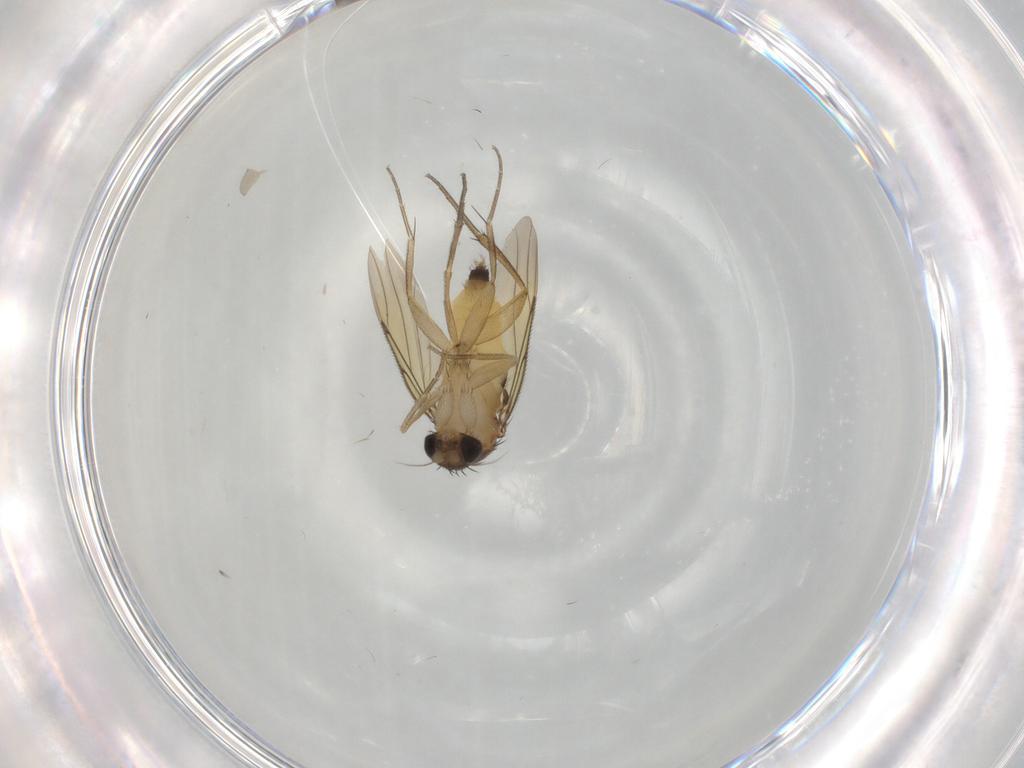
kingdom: Animalia
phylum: Arthropoda
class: Insecta
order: Diptera
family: Phoridae
